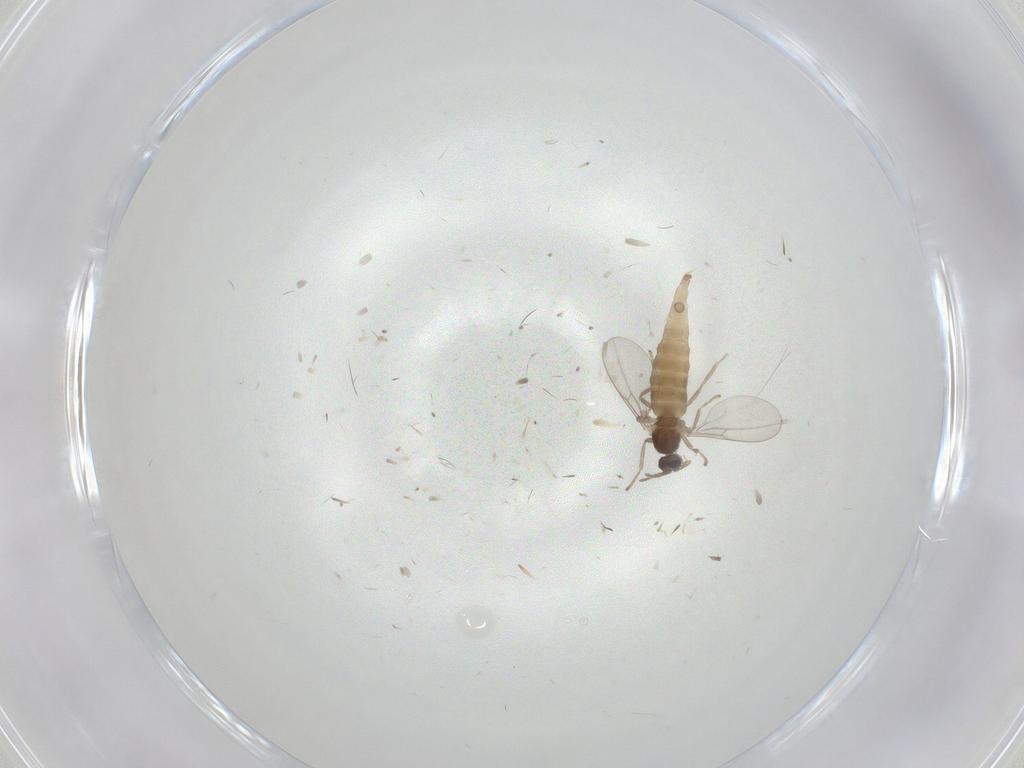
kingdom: Animalia
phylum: Arthropoda
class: Insecta
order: Diptera
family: Cecidomyiidae
